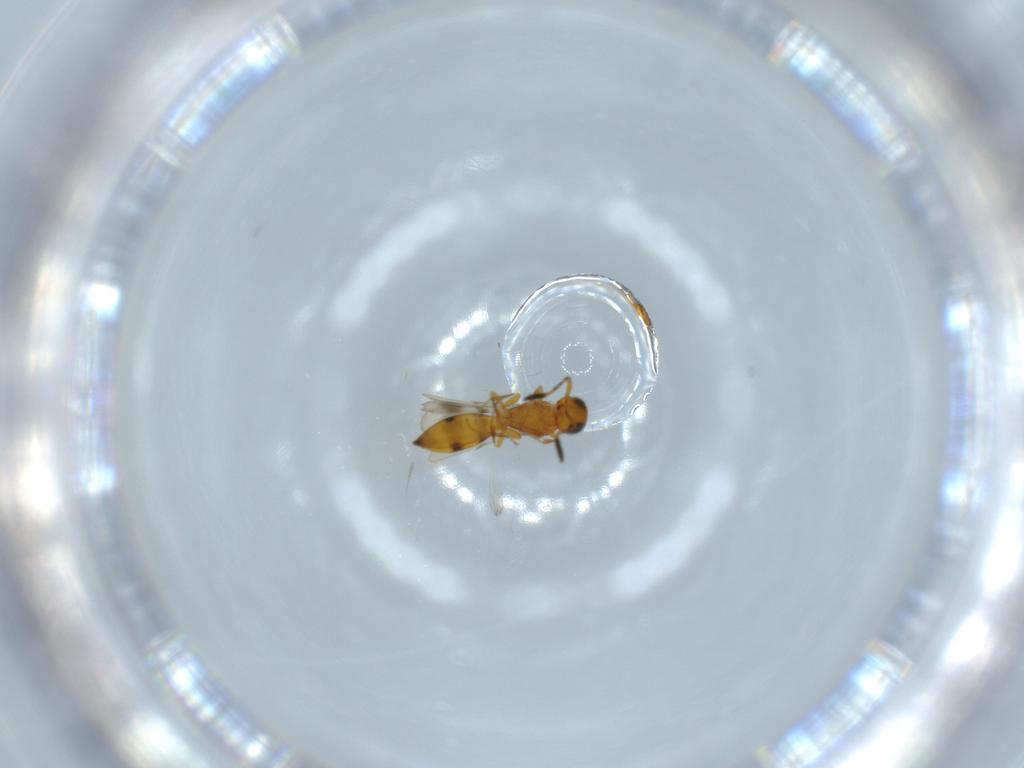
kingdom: Animalia
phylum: Arthropoda
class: Insecta
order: Hymenoptera
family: Scelionidae
